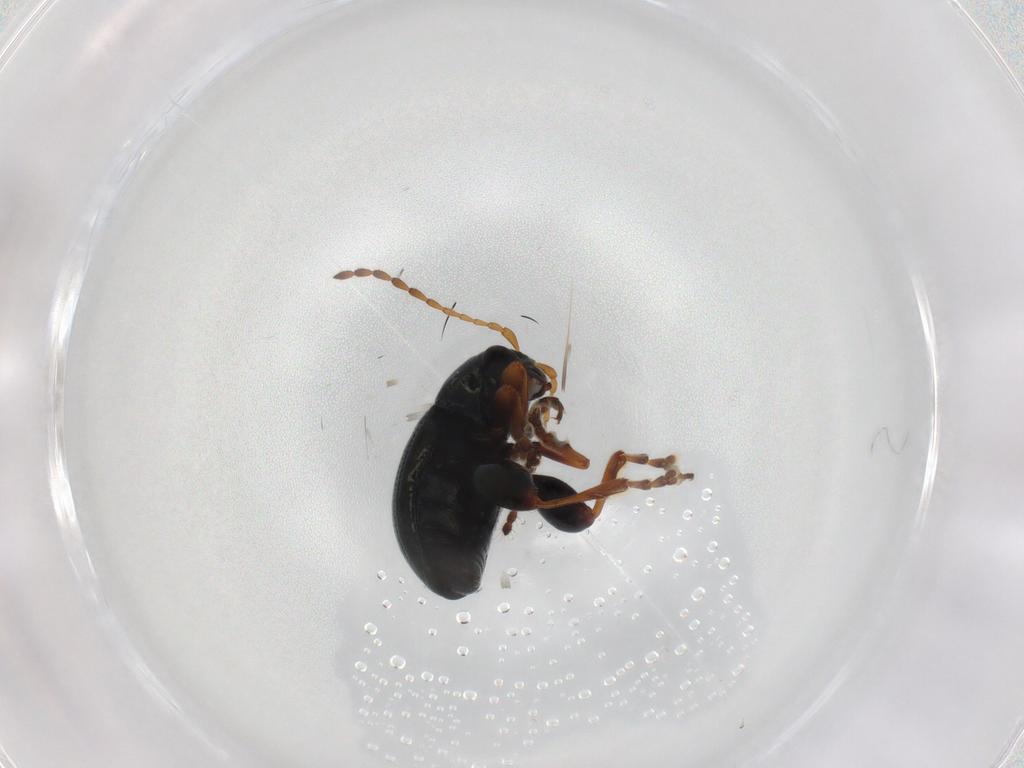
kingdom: Animalia
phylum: Arthropoda
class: Insecta
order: Coleoptera
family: Chrysomelidae
